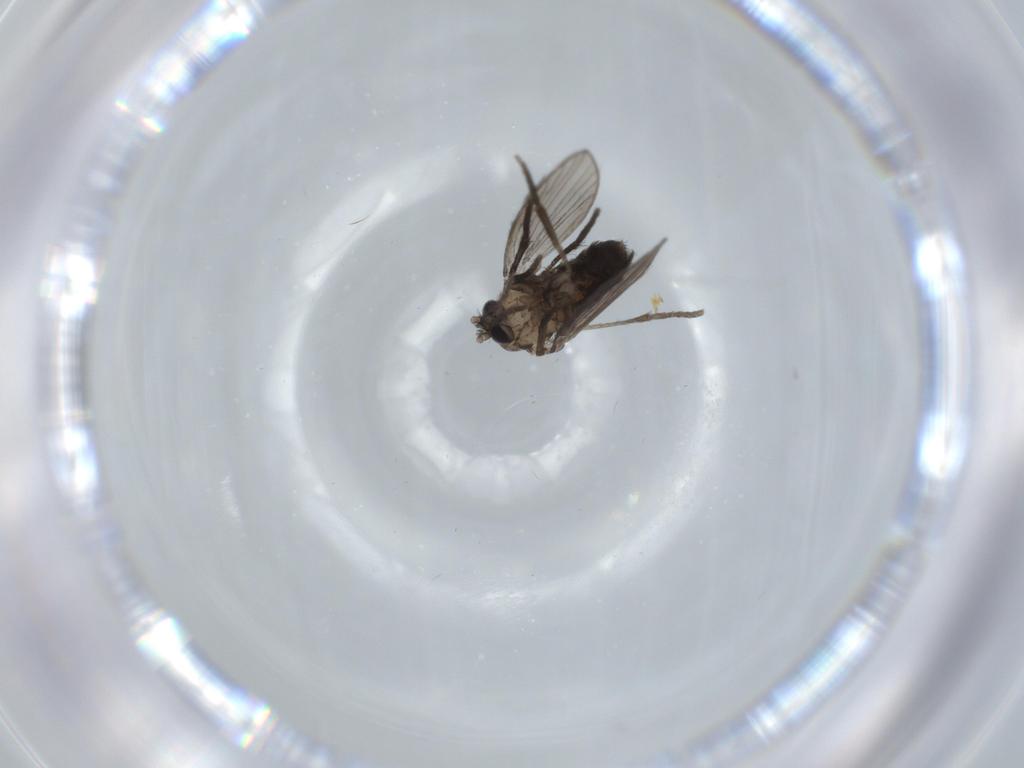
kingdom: Animalia
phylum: Arthropoda
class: Insecta
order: Diptera
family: Psychodidae
